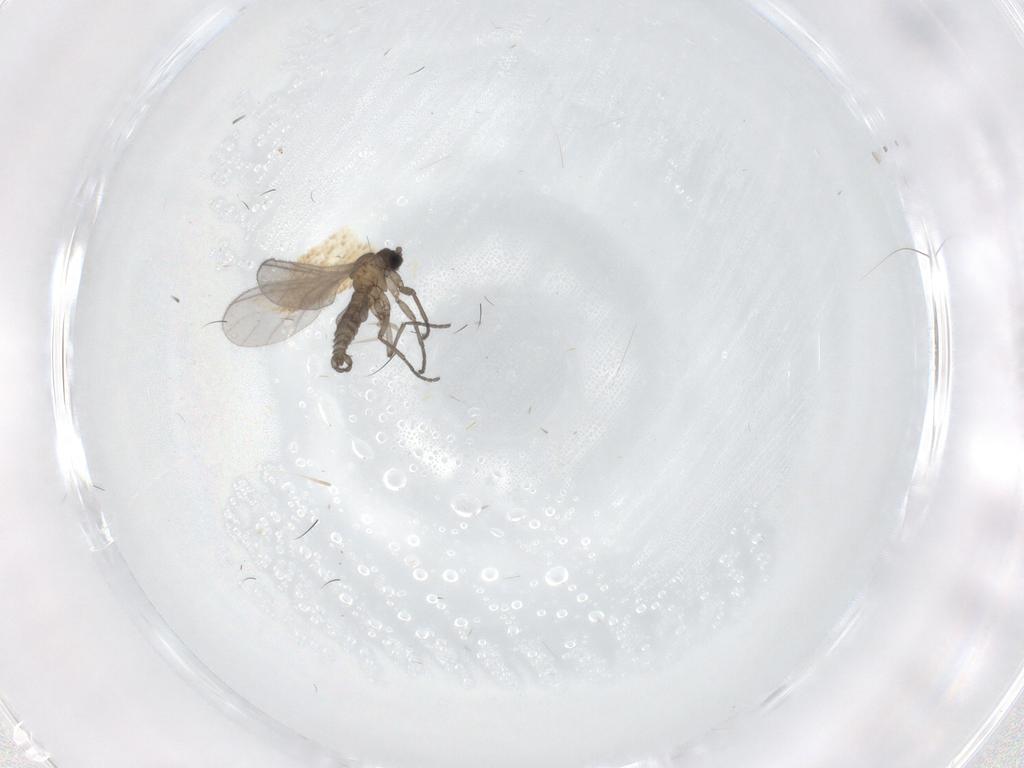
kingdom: Animalia
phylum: Arthropoda
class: Insecta
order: Diptera
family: Sciaridae
